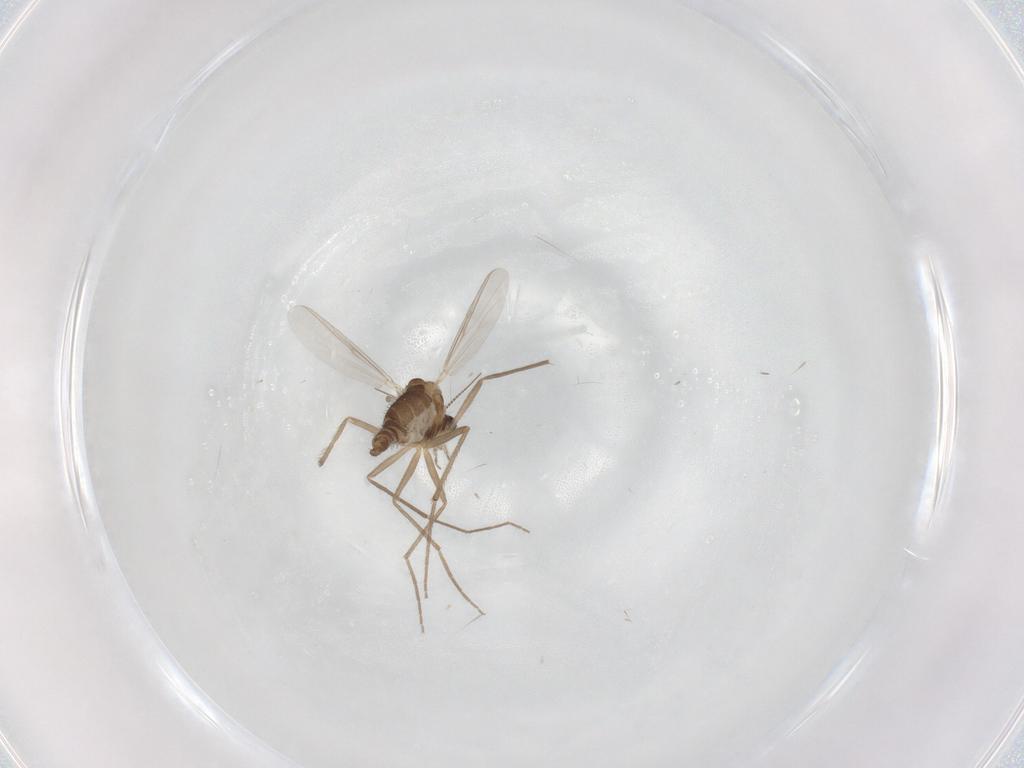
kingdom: Animalia
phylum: Arthropoda
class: Insecta
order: Diptera
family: Chironomidae
